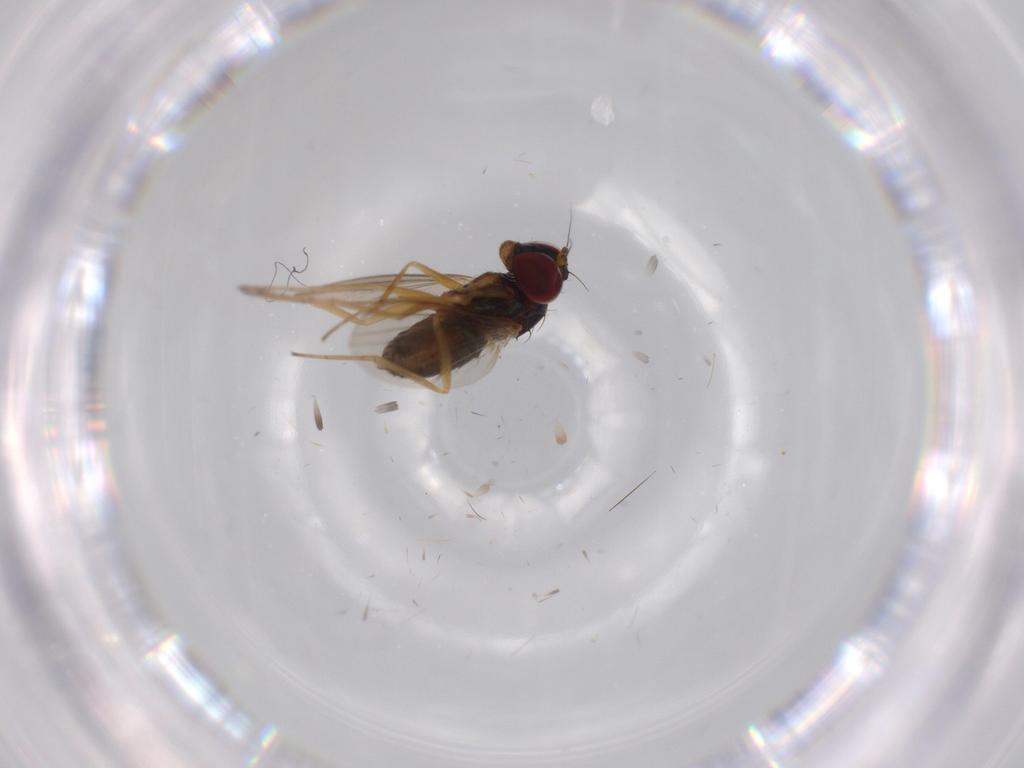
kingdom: Animalia
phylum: Arthropoda
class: Insecta
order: Diptera
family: Dolichopodidae
